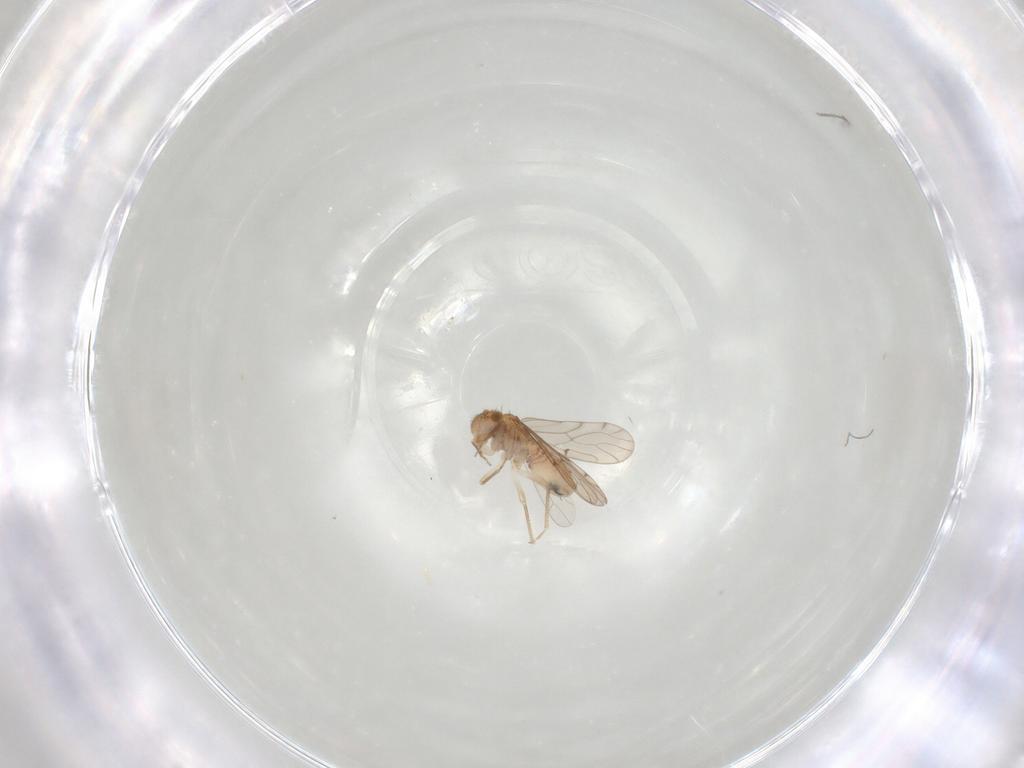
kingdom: Animalia
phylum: Arthropoda
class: Insecta
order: Psocodea
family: Ectopsocidae
